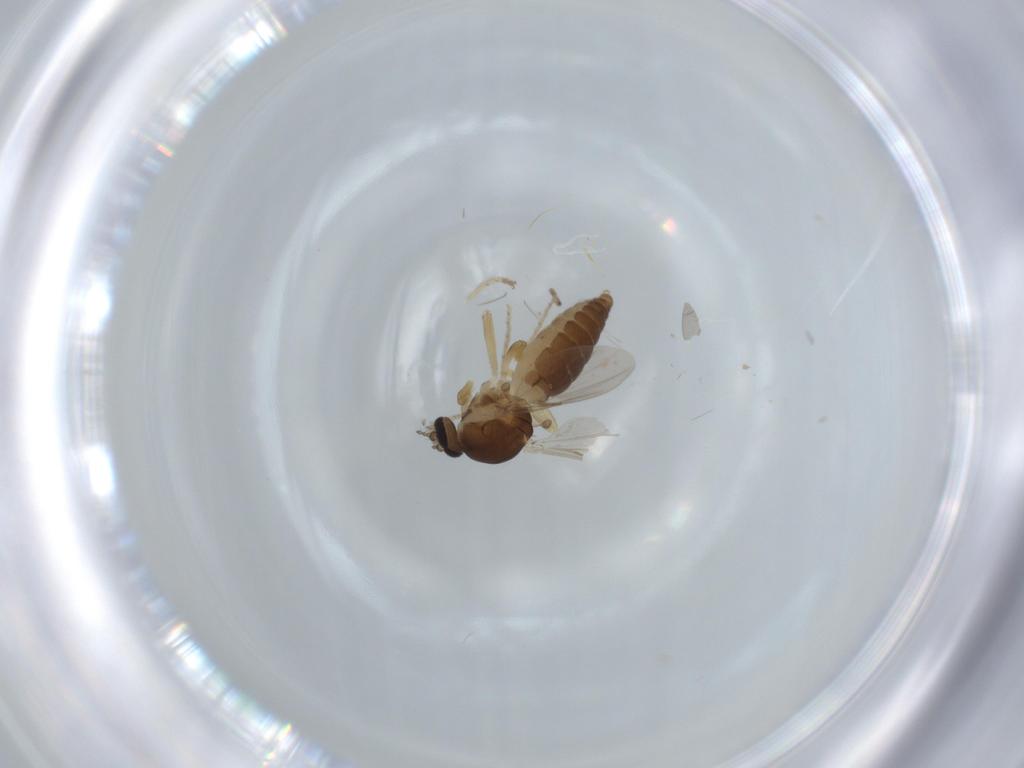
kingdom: Animalia
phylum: Arthropoda
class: Insecta
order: Diptera
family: Ceratopogonidae
